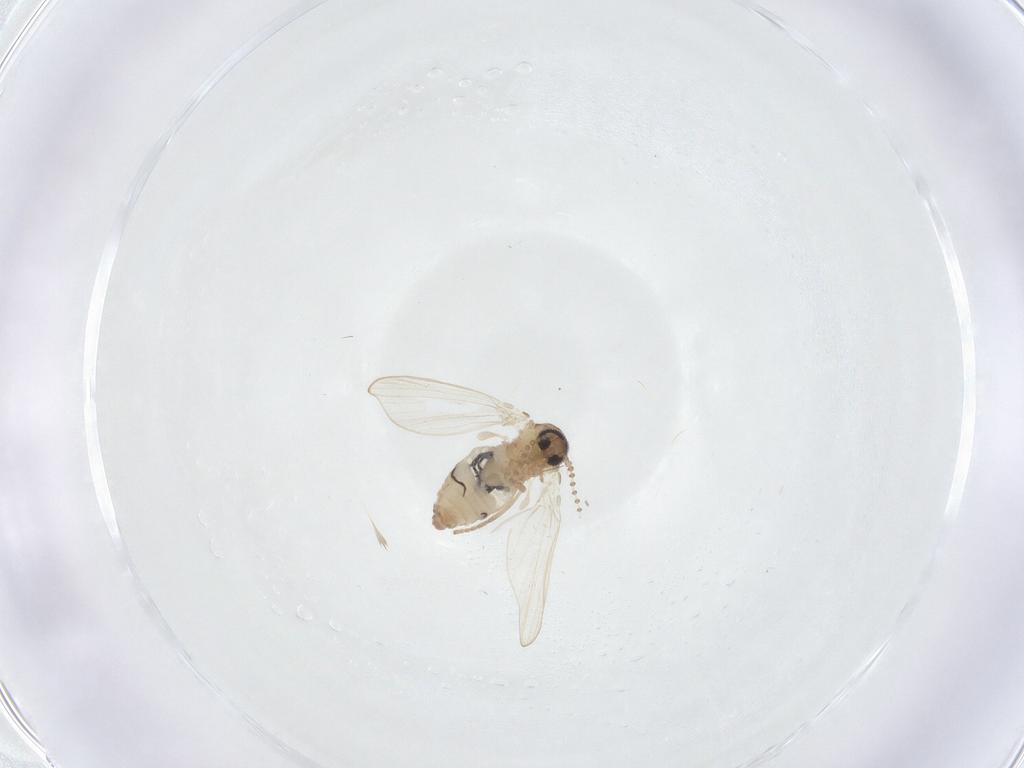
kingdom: Animalia
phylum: Arthropoda
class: Insecta
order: Diptera
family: Psychodidae
